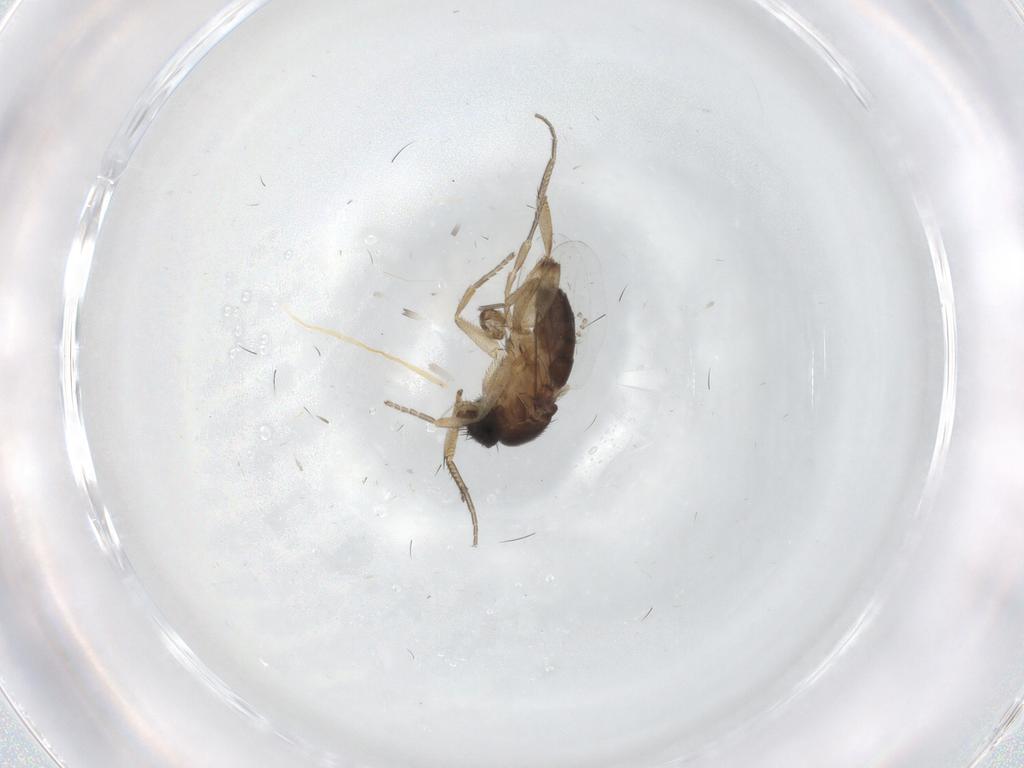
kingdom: Animalia
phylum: Arthropoda
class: Insecta
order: Diptera
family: Phoridae
